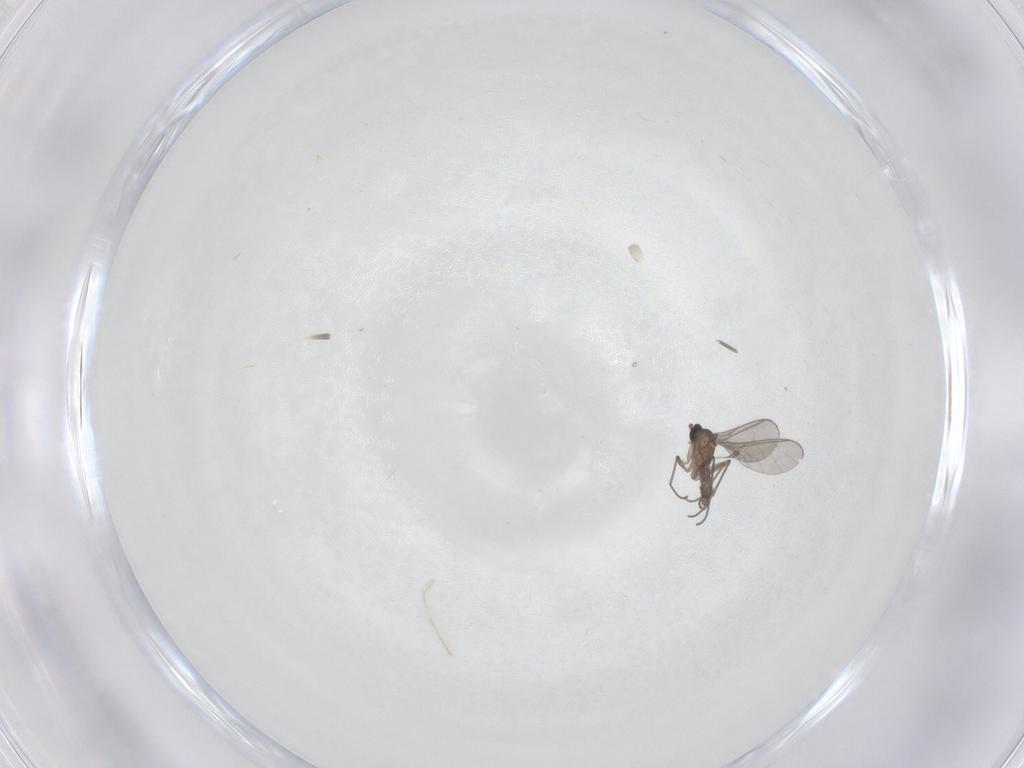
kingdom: Animalia
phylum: Arthropoda
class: Insecta
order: Diptera
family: Sciaridae
